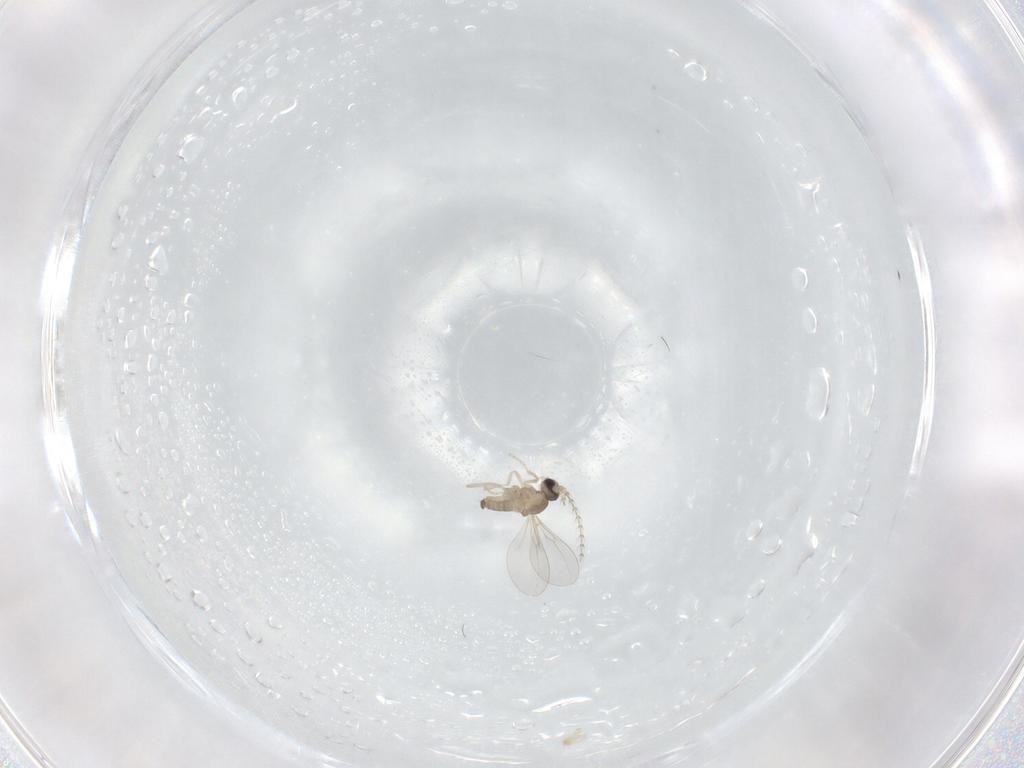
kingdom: Animalia
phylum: Arthropoda
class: Insecta
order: Diptera
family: Cecidomyiidae
